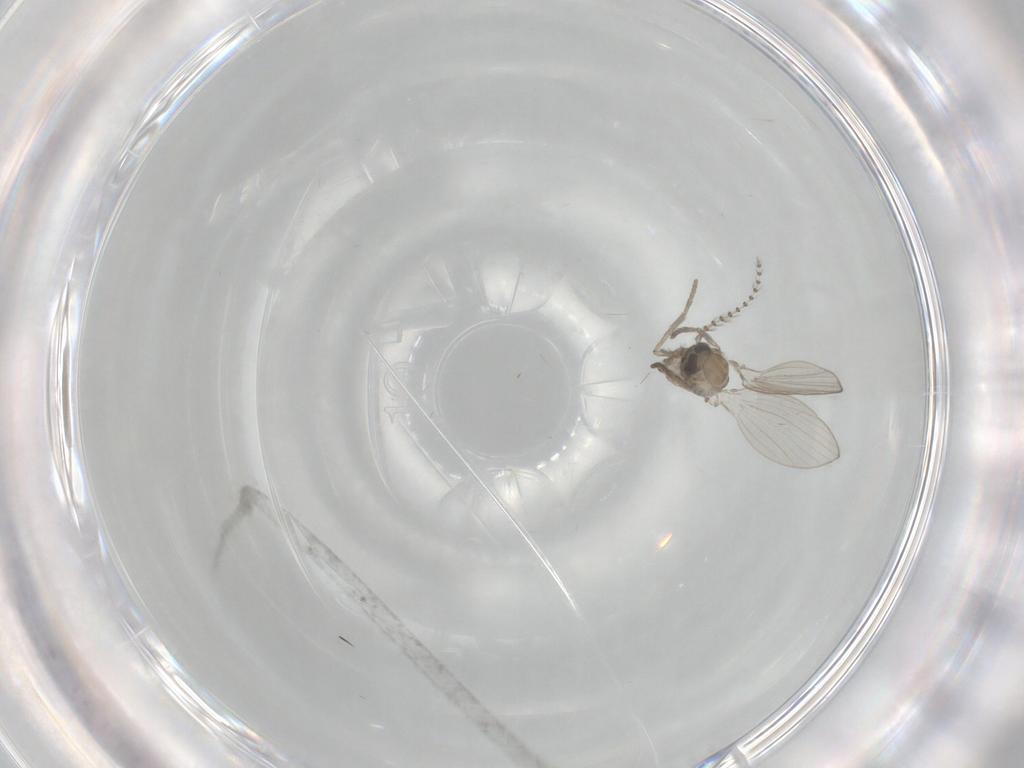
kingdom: Animalia
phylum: Arthropoda
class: Insecta
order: Diptera
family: Psychodidae
